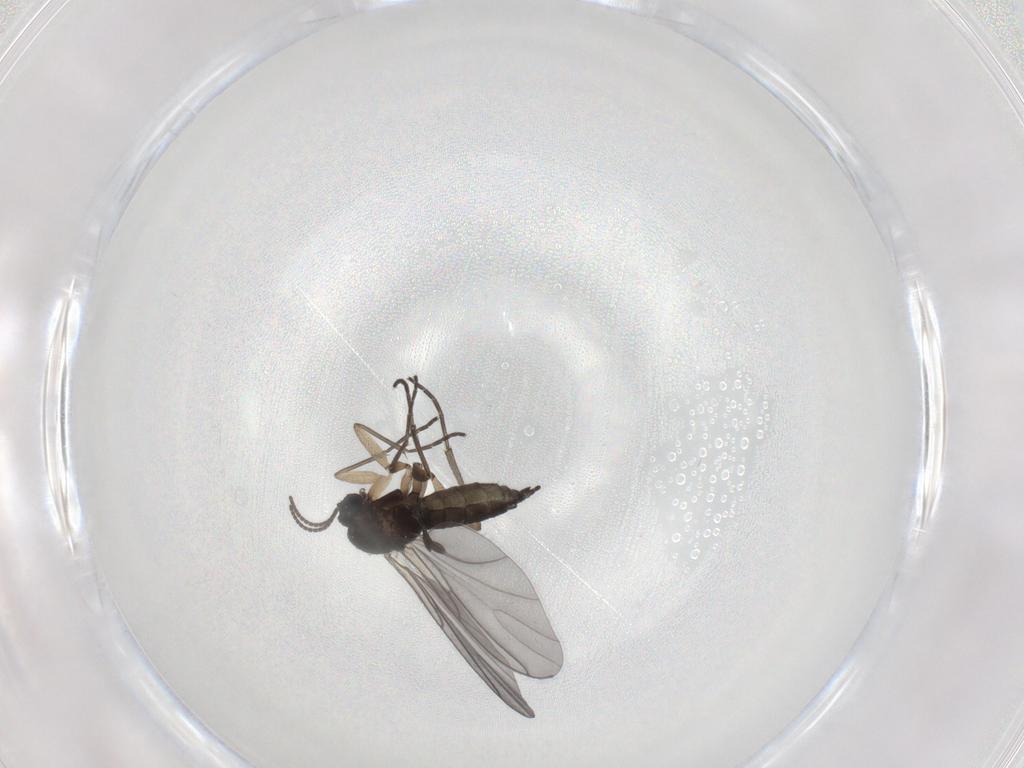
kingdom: Animalia
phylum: Arthropoda
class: Insecta
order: Diptera
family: Sciaridae
